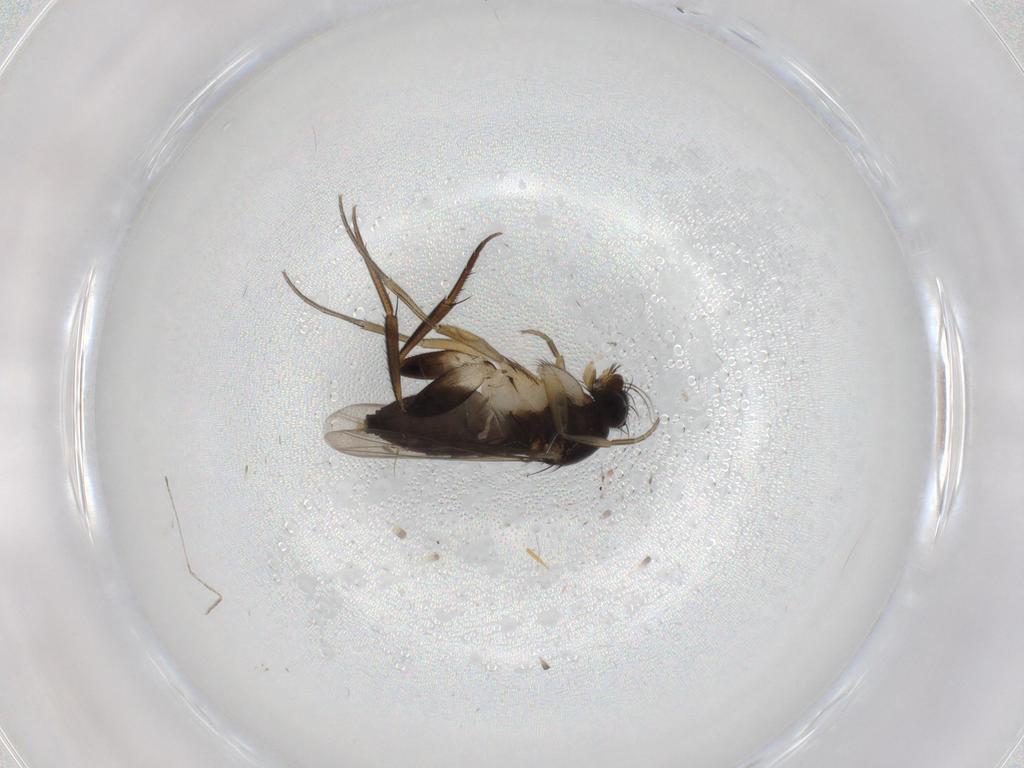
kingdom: Animalia
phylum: Arthropoda
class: Insecta
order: Diptera
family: Phoridae
